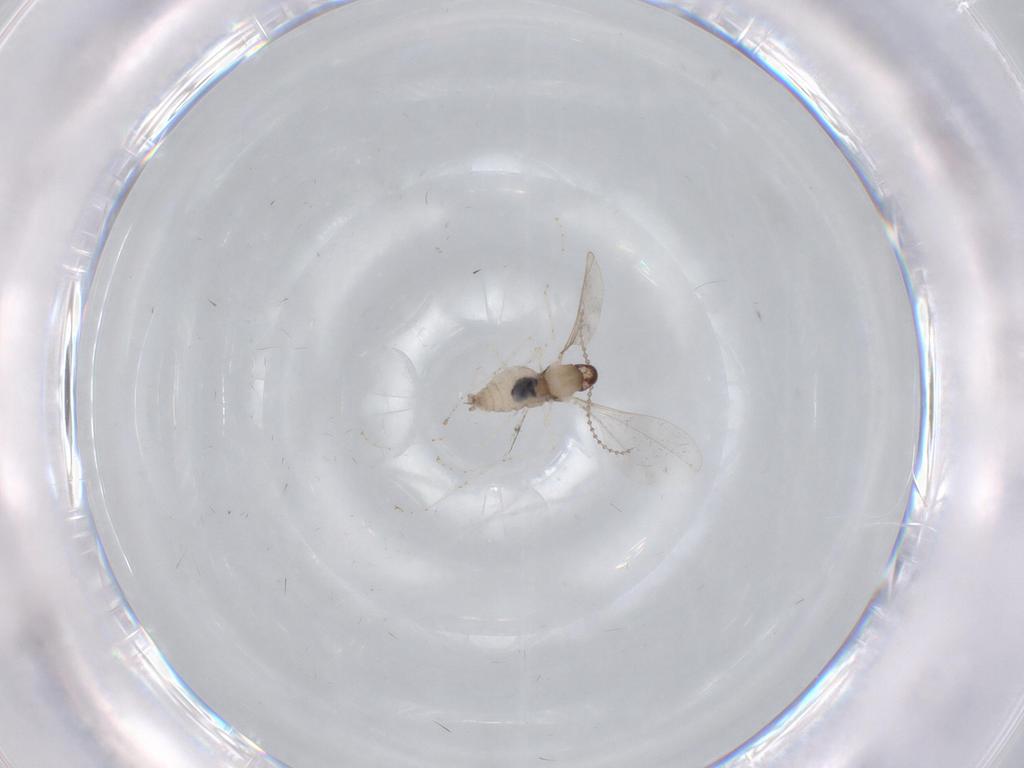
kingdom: Animalia
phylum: Arthropoda
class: Insecta
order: Diptera
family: Cecidomyiidae
